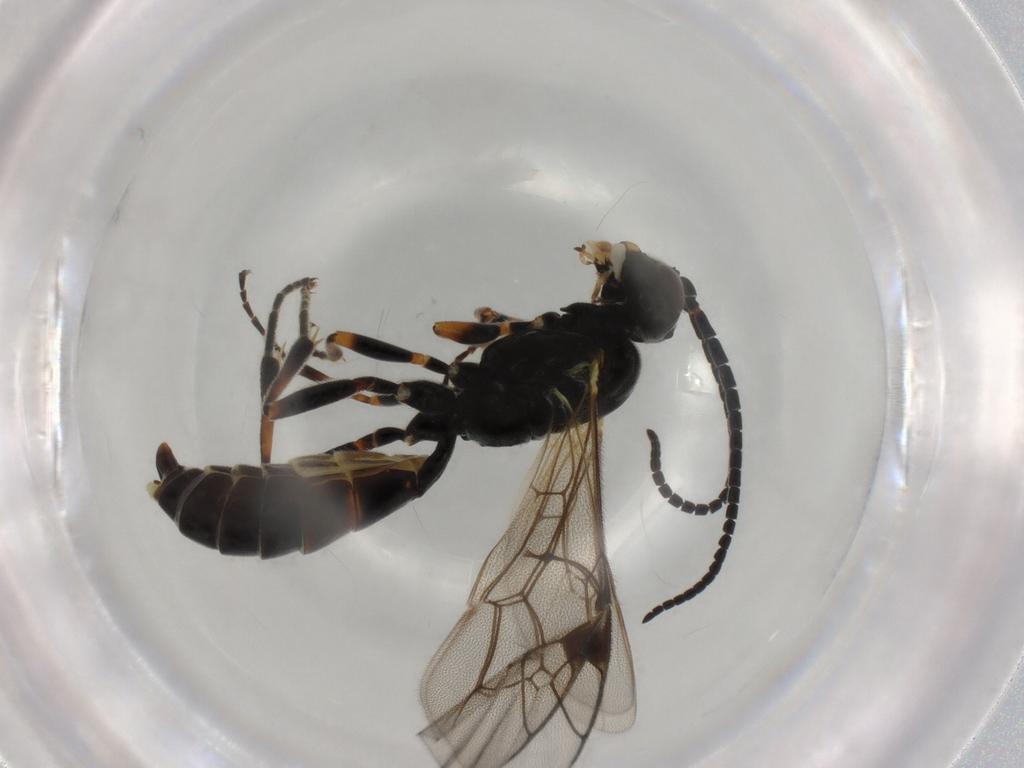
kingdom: Animalia
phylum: Arthropoda
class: Insecta
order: Hymenoptera
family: Ichneumonidae
